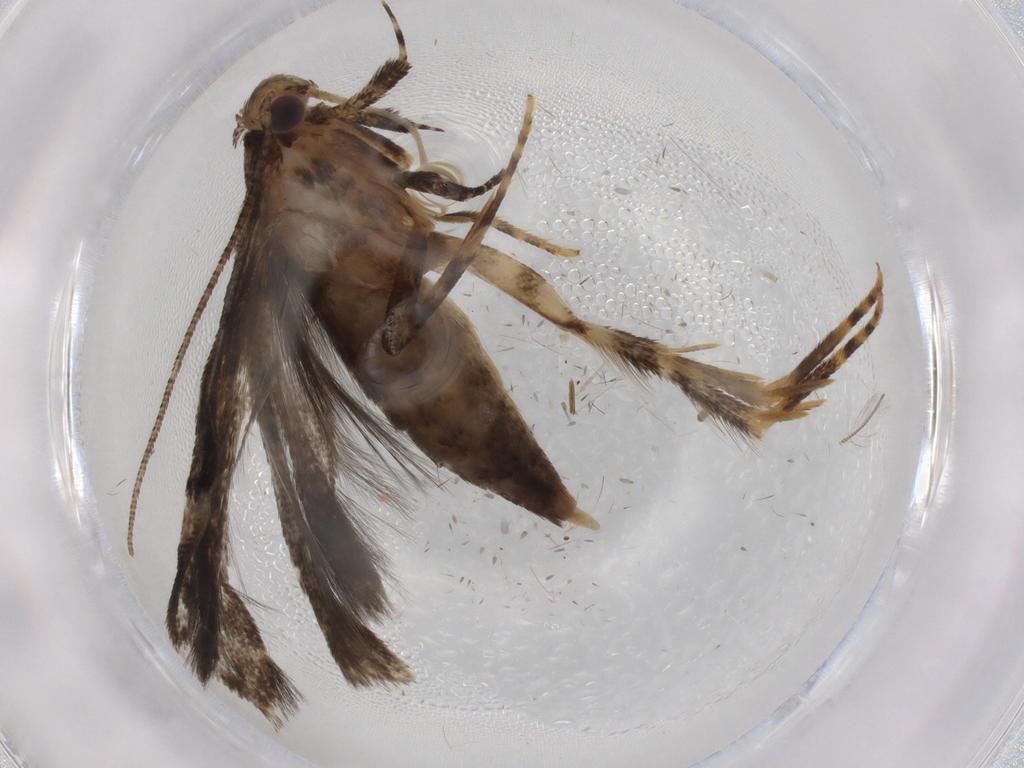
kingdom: Animalia
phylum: Arthropoda
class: Insecta
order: Lepidoptera
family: Gelechiidae
